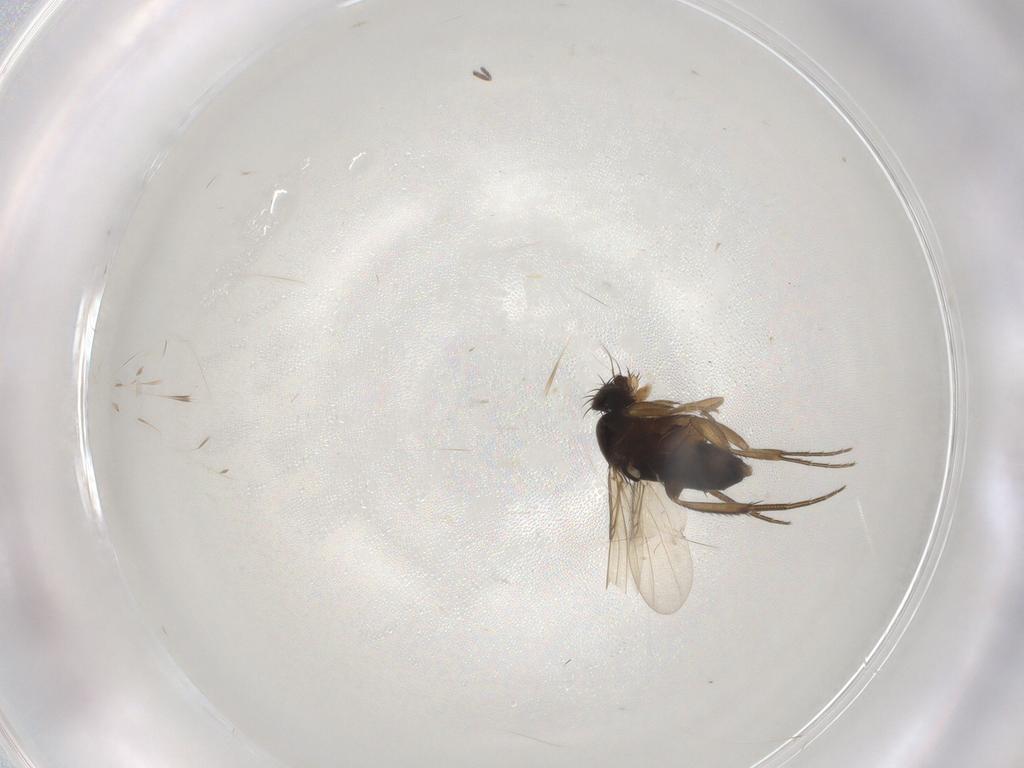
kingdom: Animalia
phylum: Arthropoda
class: Insecta
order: Diptera
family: Phoridae
